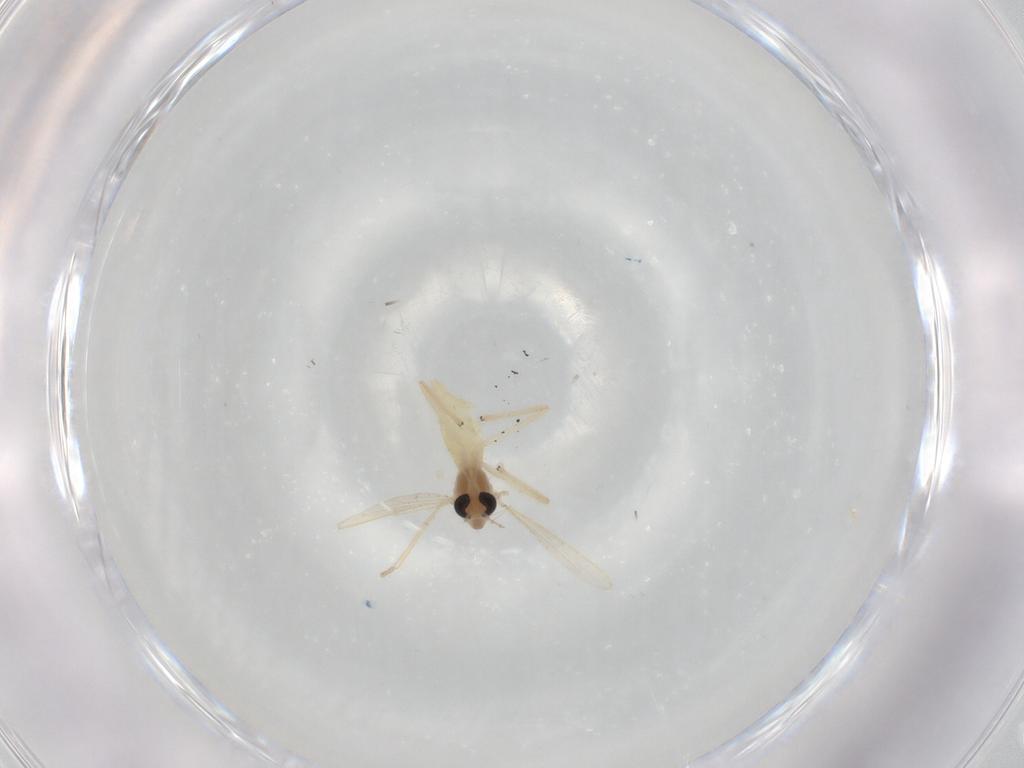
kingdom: Animalia
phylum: Arthropoda
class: Insecta
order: Diptera
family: Chironomidae
